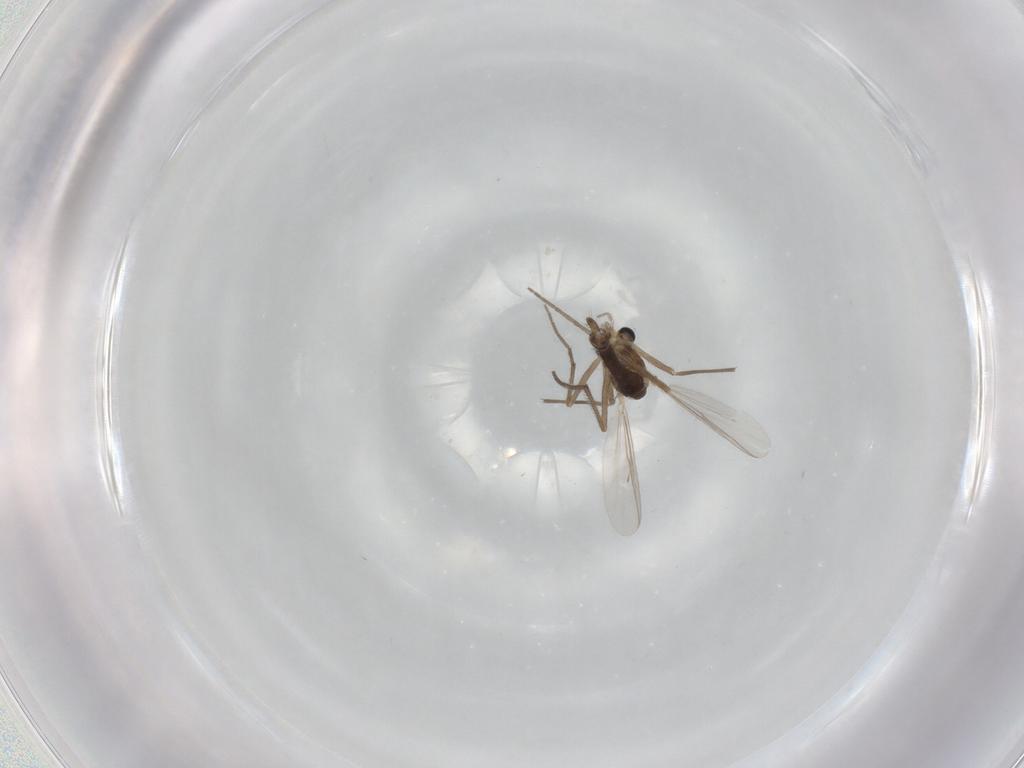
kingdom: Animalia
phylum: Arthropoda
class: Insecta
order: Diptera
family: Chironomidae
